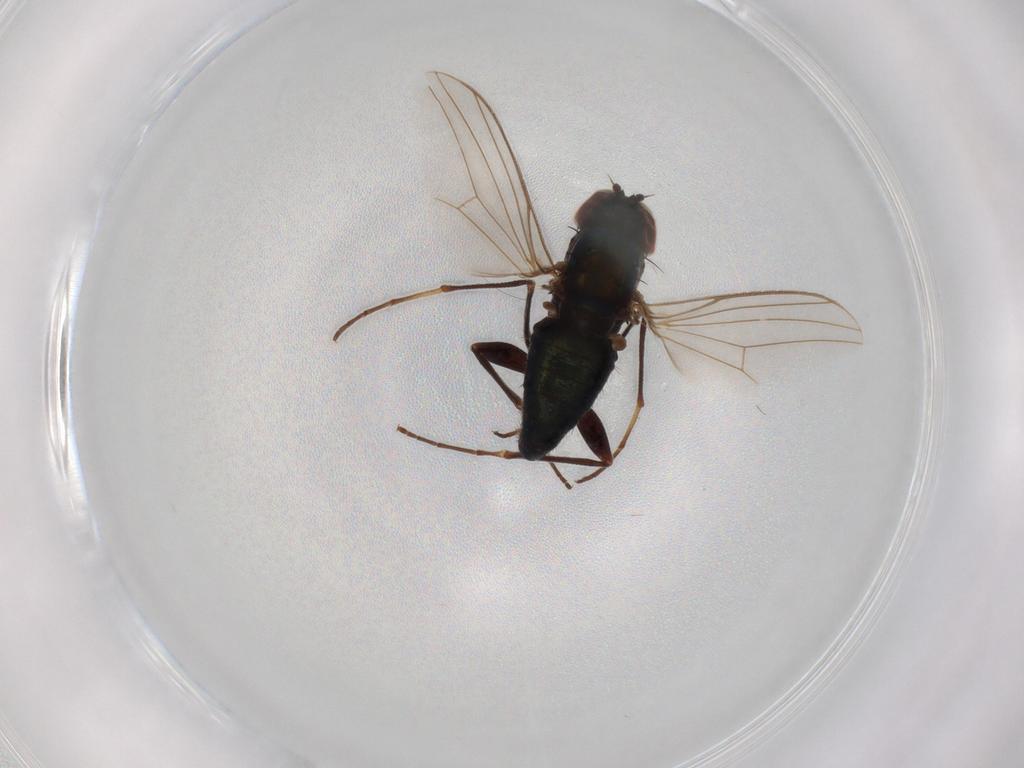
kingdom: Animalia
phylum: Arthropoda
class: Insecta
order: Diptera
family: Dolichopodidae
